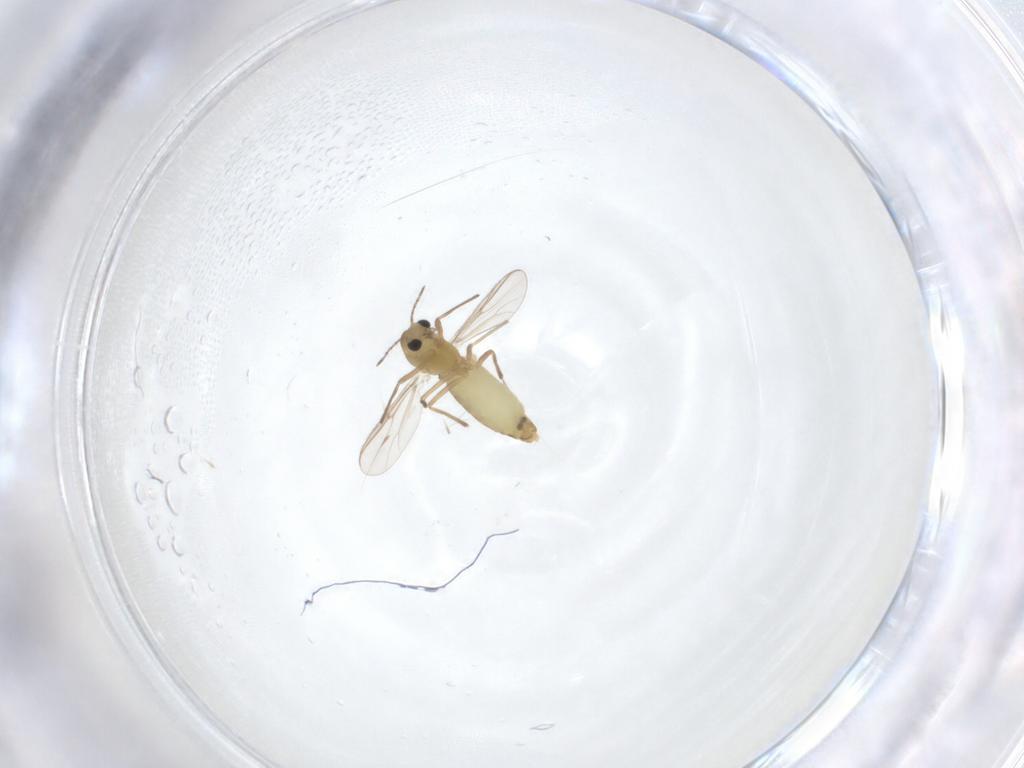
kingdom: Animalia
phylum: Arthropoda
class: Insecta
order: Diptera
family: Chironomidae
